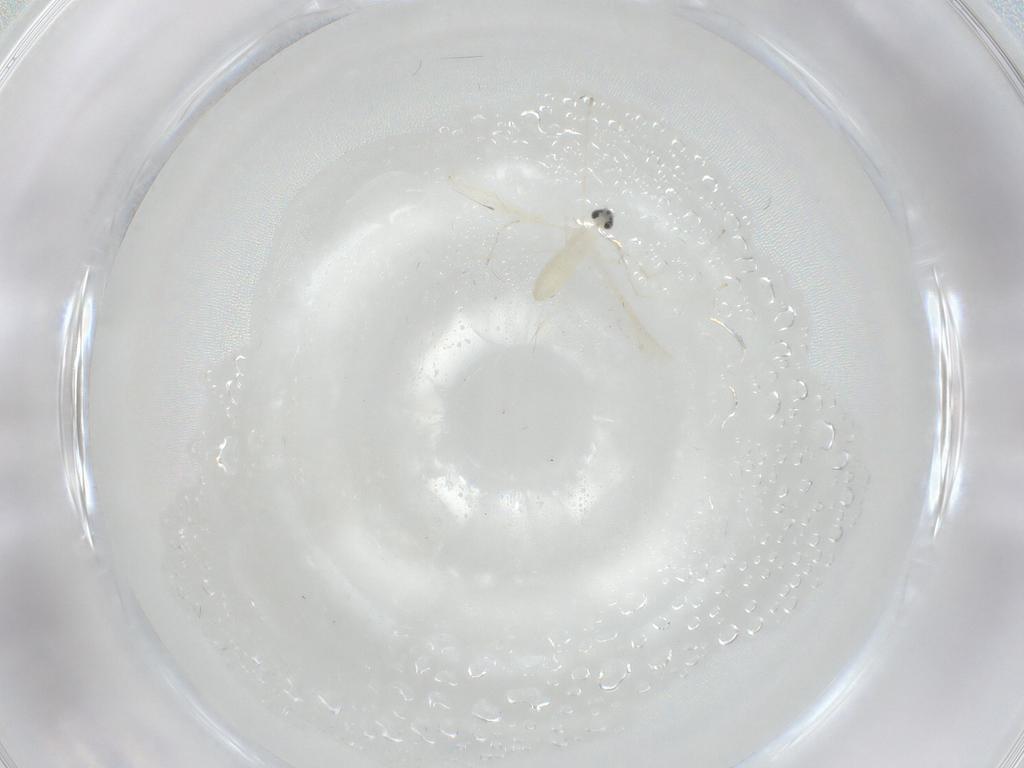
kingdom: Animalia
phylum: Arthropoda
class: Insecta
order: Diptera
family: Cecidomyiidae
